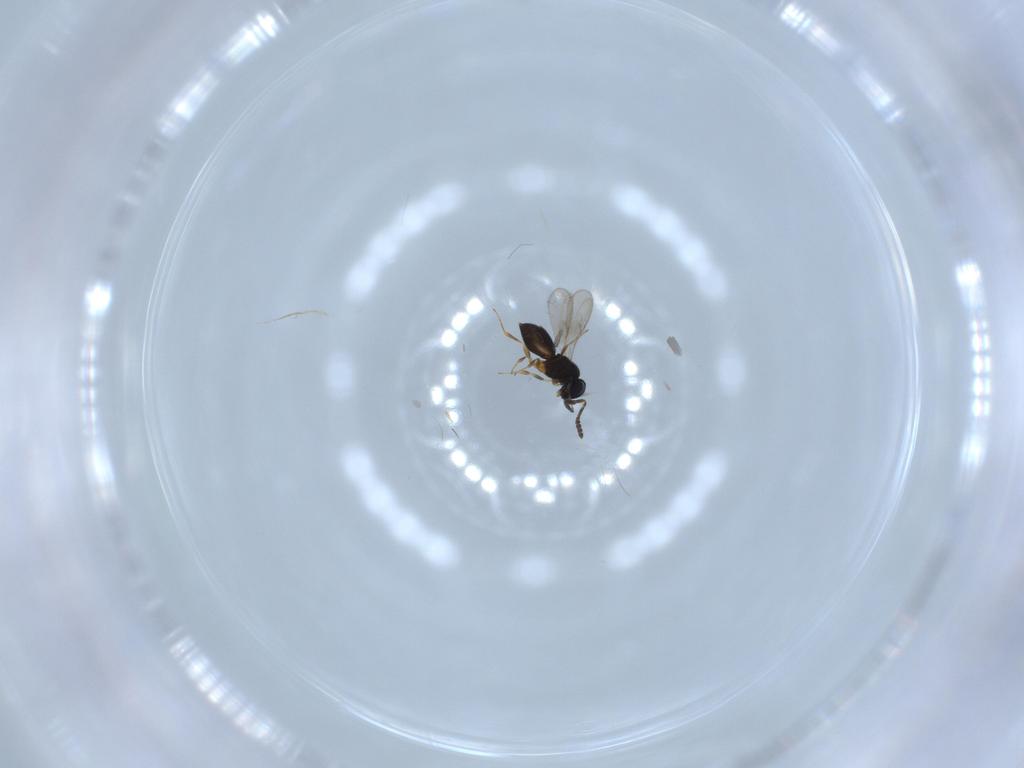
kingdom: Animalia
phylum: Arthropoda
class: Insecta
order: Hymenoptera
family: Scelionidae
